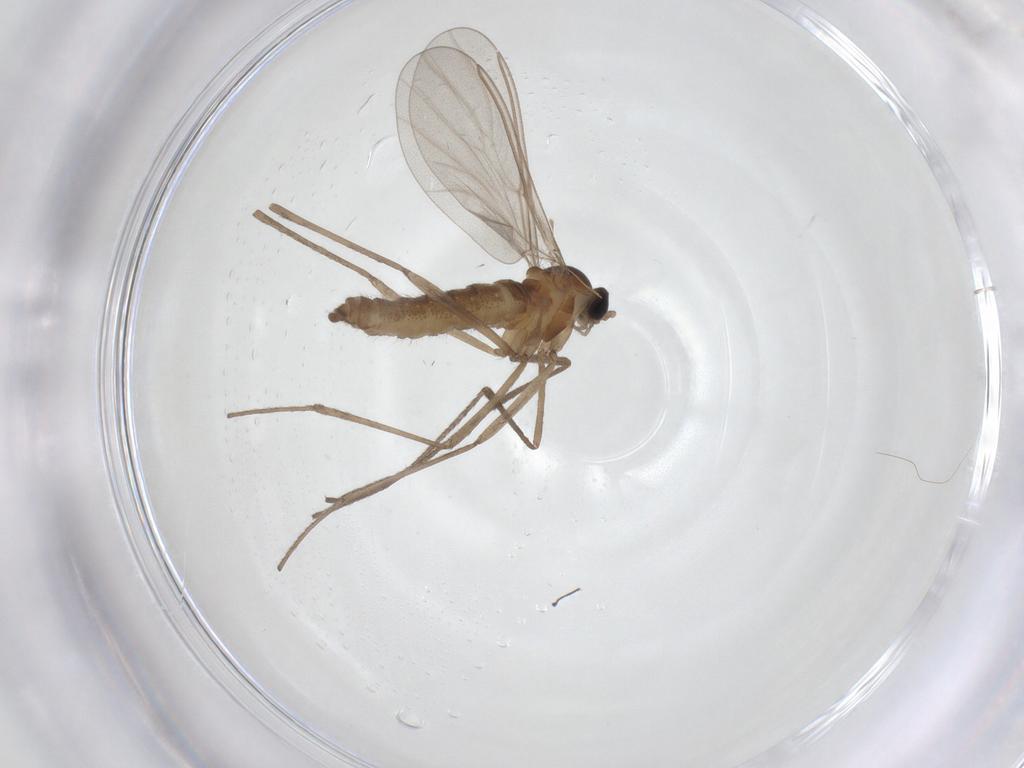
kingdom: Animalia
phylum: Arthropoda
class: Insecta
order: Diptera
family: Cecidomyiidae
